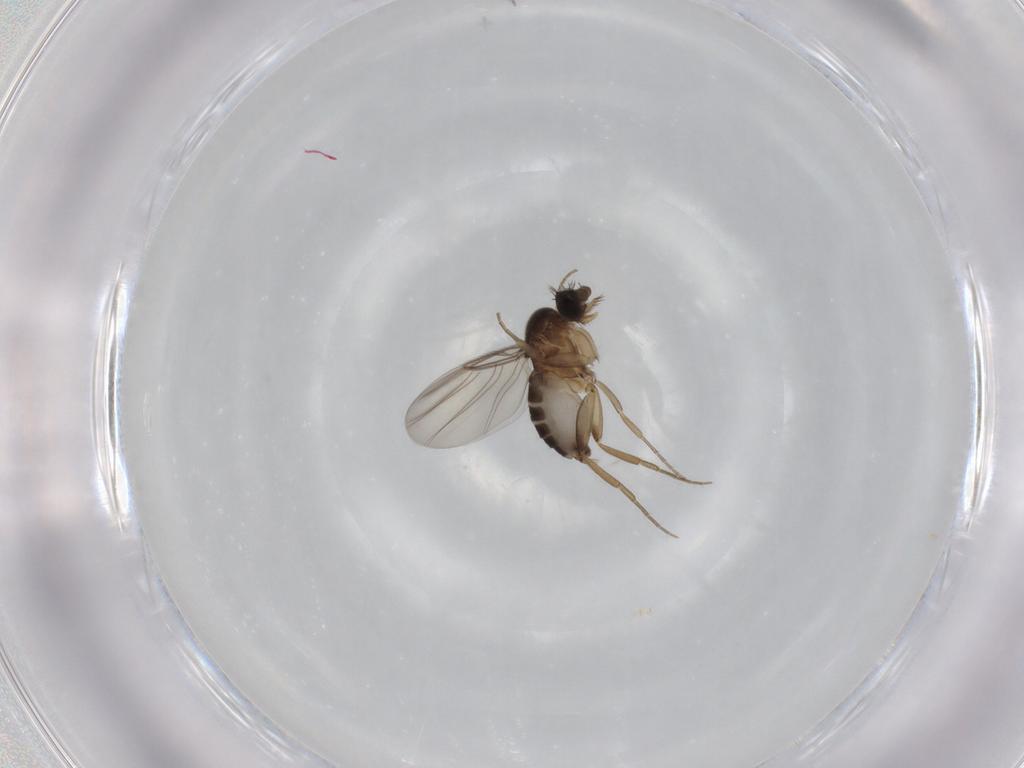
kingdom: Animalia
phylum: Arthropoda
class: Insecta
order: Diptera
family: Phoridae
